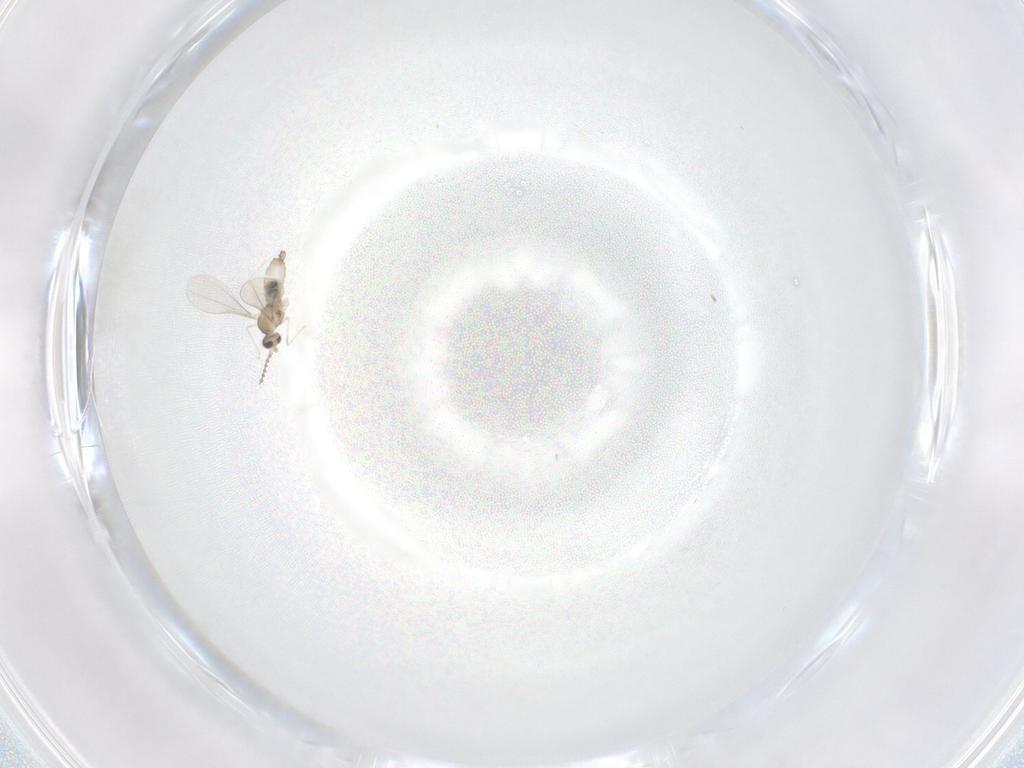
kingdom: Animalia
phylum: Arthropoda
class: Insecta
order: Diptera
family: Cecidomyiidae
